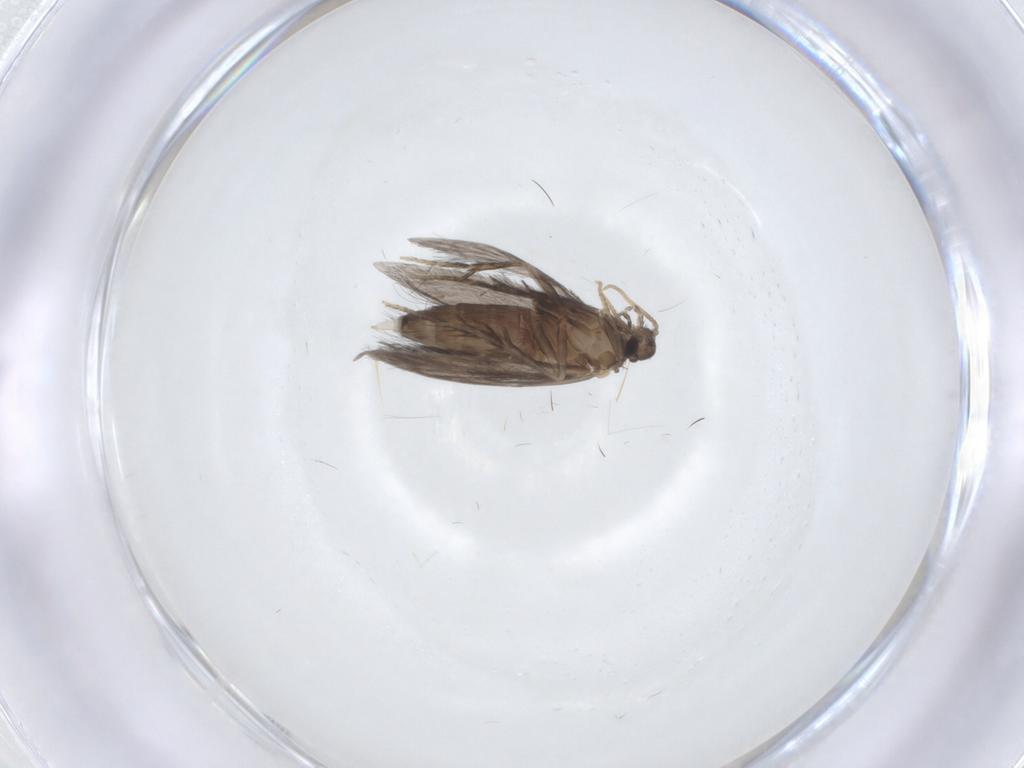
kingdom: Animalia
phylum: Arthropoda
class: Insecta
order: Trichoptera
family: Hydroptilidae
